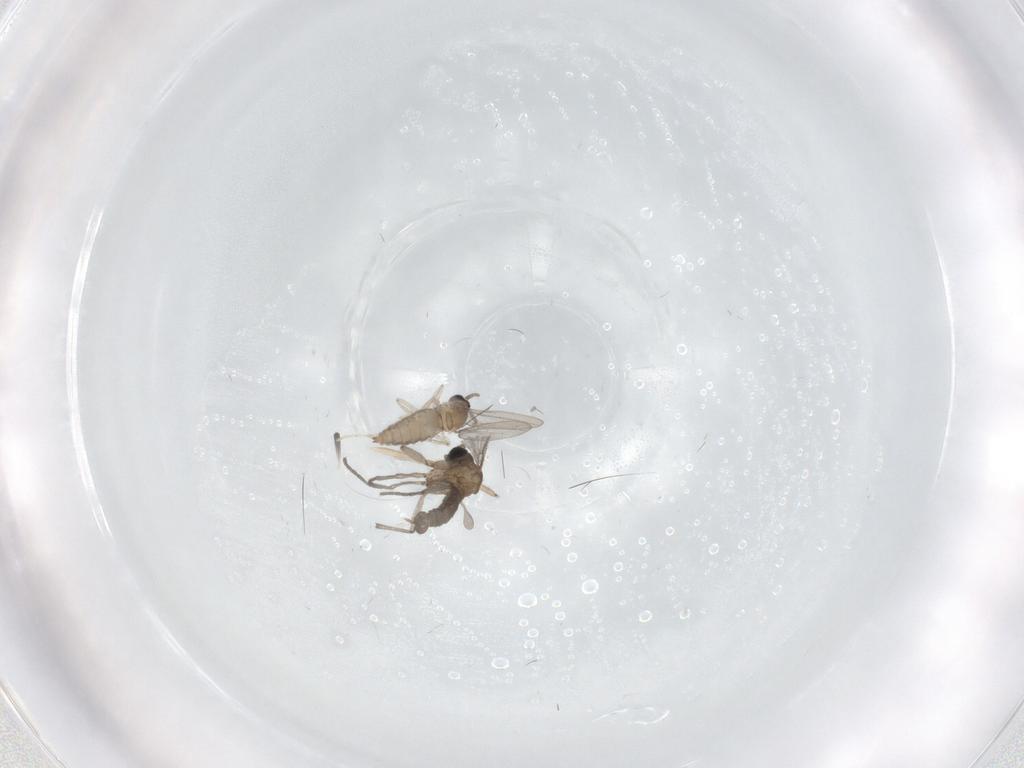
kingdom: Animalia
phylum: Arthropoda
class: Insecta
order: Diptera
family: Sciaridae
